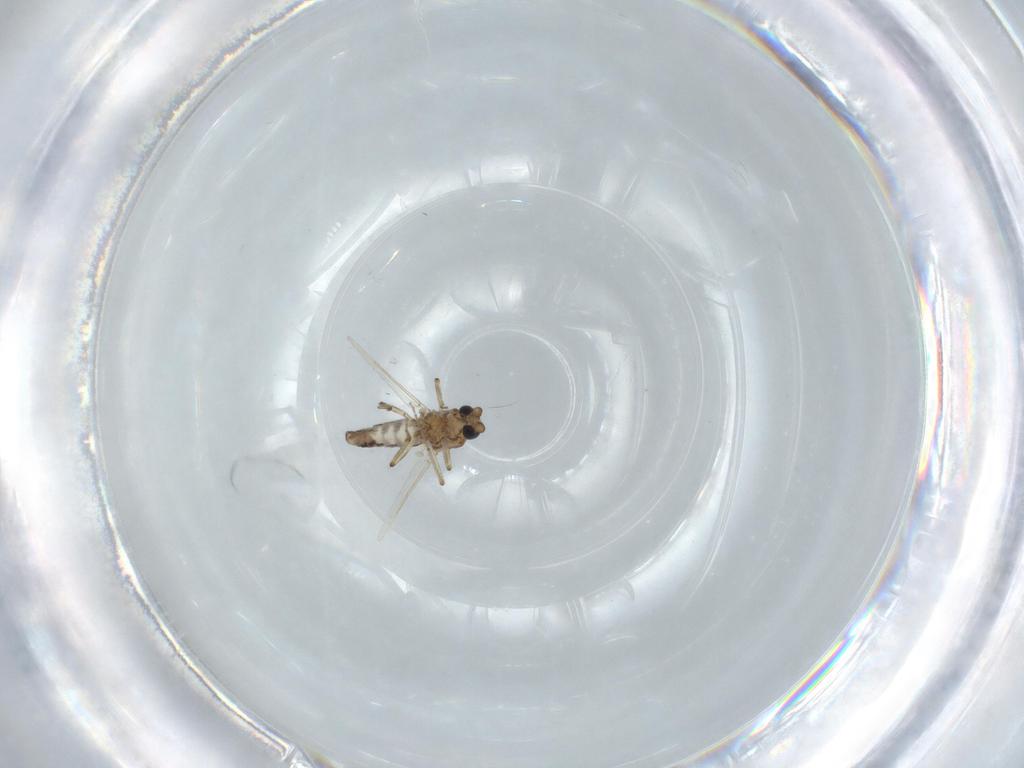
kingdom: Animalia
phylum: Arthropoda
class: Insecta
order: Diptera
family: Ceratopogonidae
